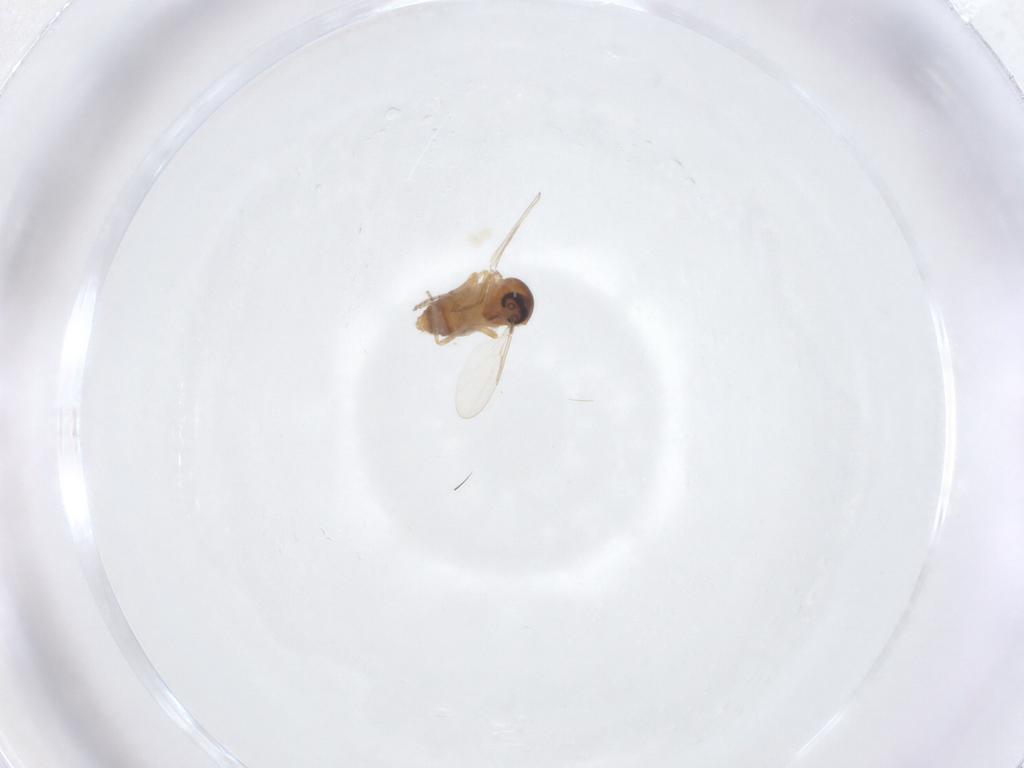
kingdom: Animalia
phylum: Arthropoda
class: Insecta
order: Diptera
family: Ceratopogonidae
